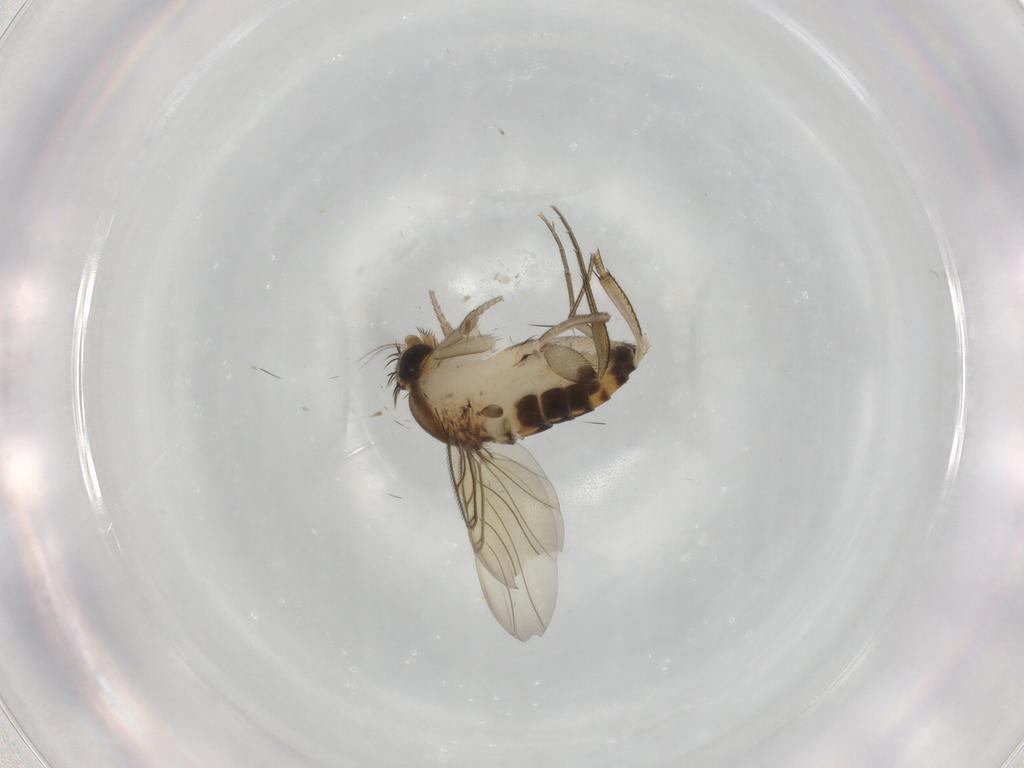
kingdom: Animalia
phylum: Arthropoda
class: Insecta
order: Diptera
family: Phoridae
